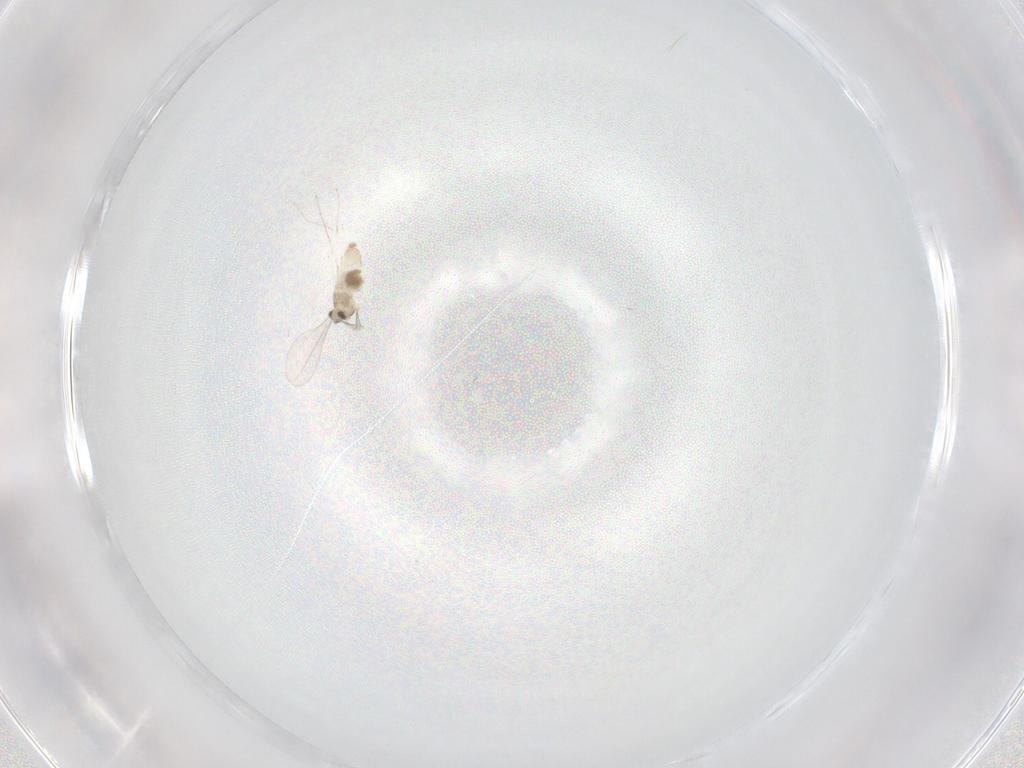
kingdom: Animalia
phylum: Arthropoda
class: Insecta
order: Diptera
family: Cecidomyiidae
